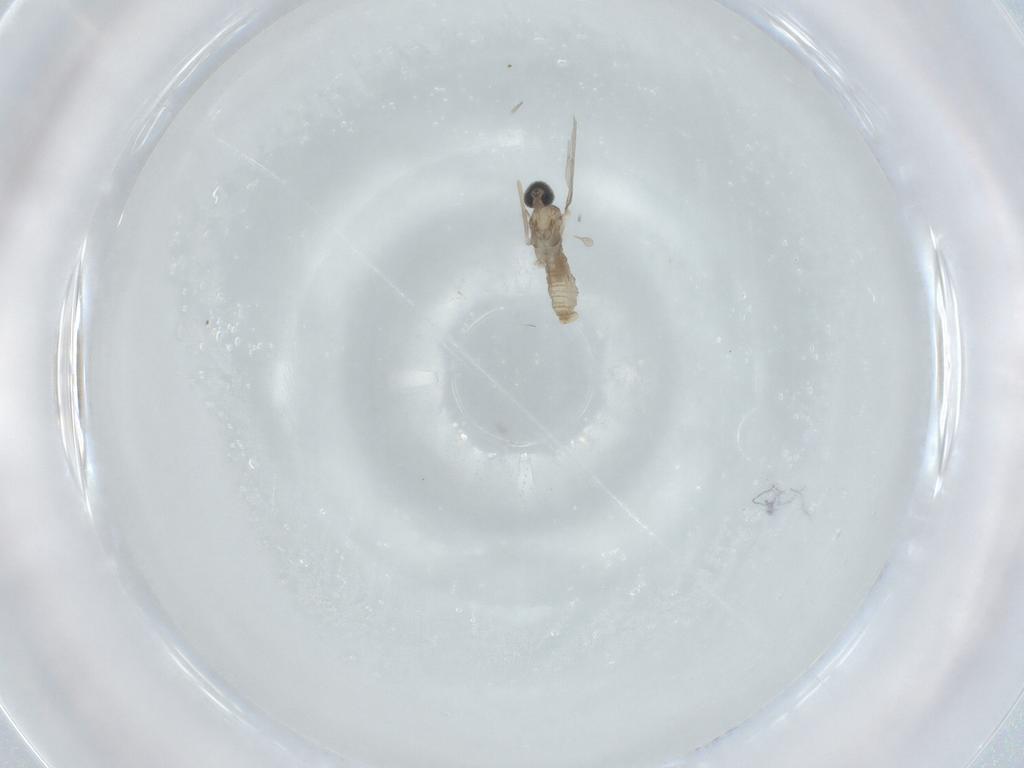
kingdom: Animalia
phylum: Arthropoda
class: Insecta
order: Diptera
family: Cecidomyiidae
